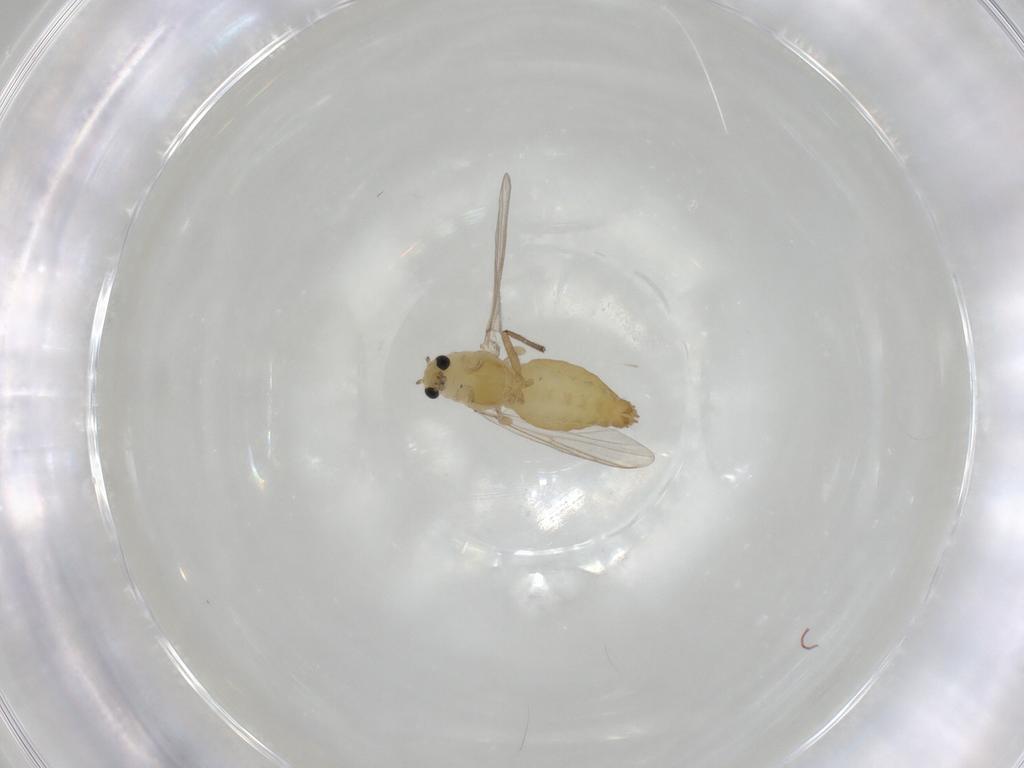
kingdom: Animalia
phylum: Arthropoda
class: Insecta
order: Diptera
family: Chironomidae
